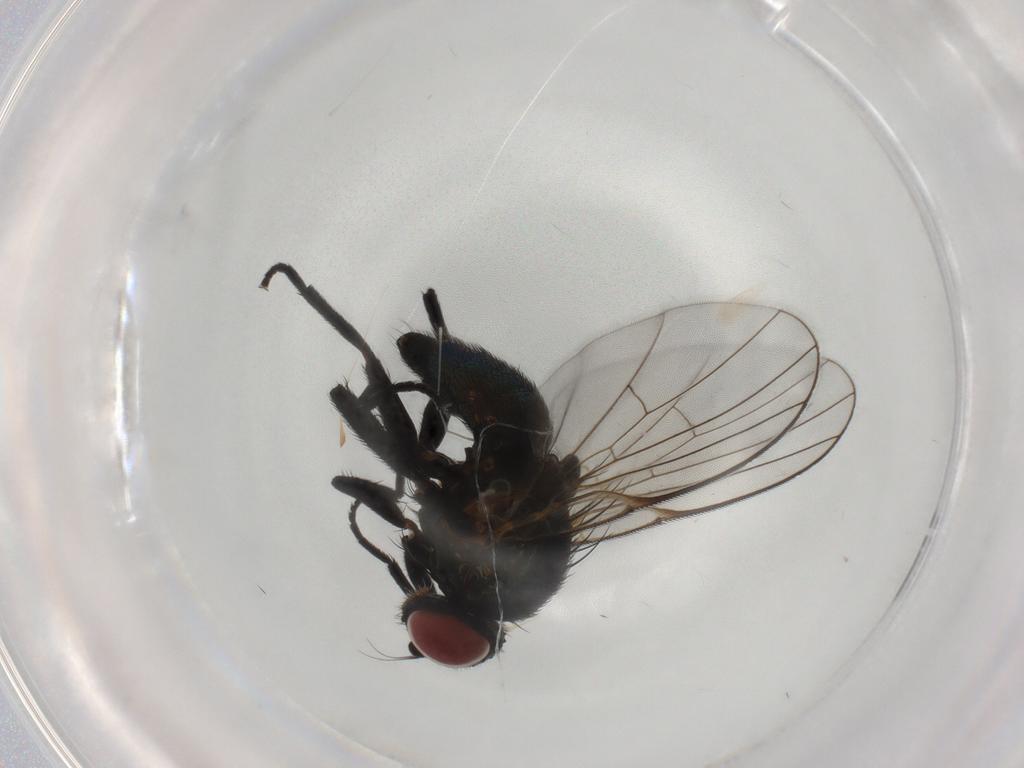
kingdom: Animalia
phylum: Arthropoda
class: Insecta
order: Diptera
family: Agromyzidae
